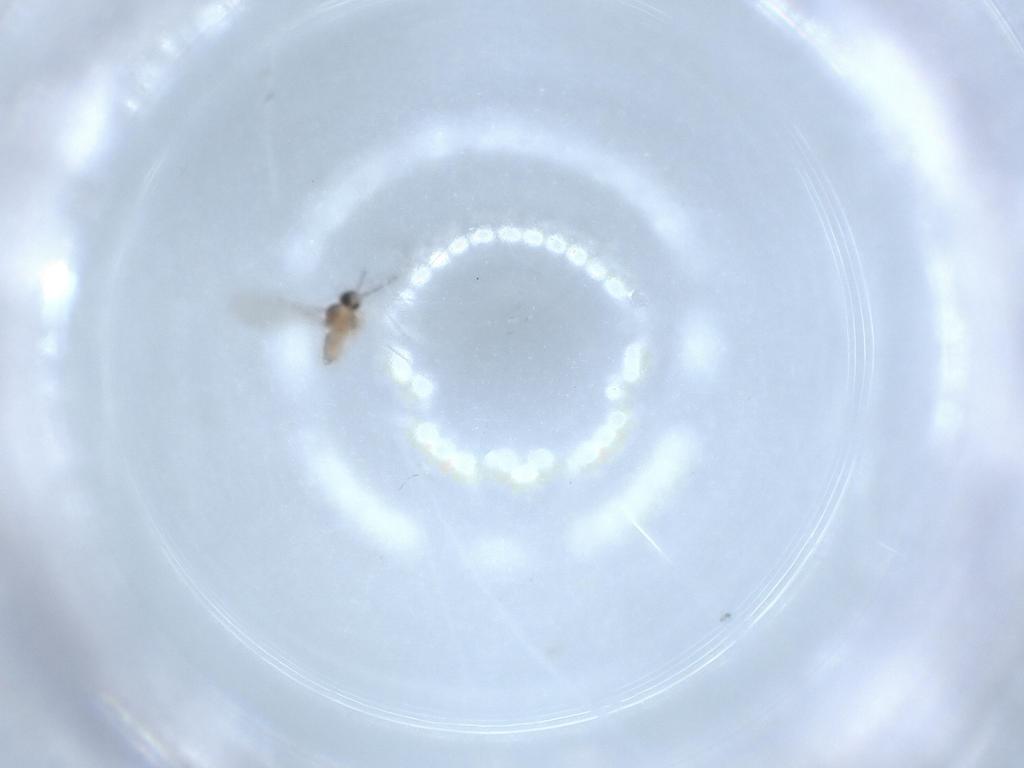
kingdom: Animalia
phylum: Arthropoda
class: Insecta
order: Diptera
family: Cecidomyiidae
